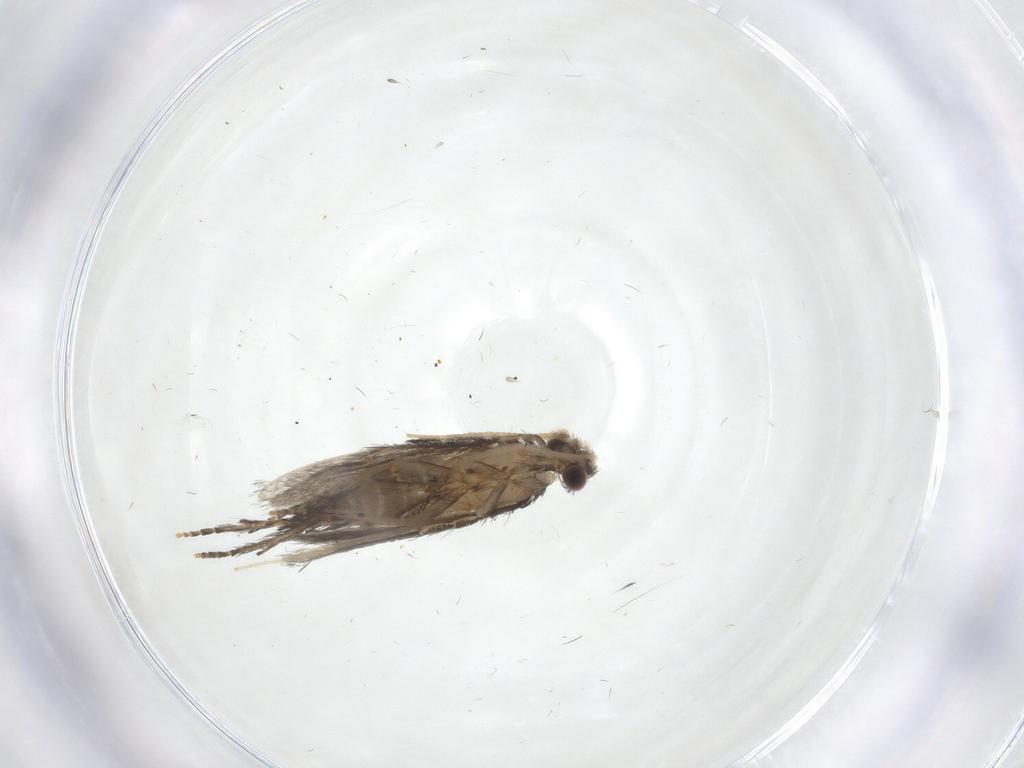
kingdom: Animalia
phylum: Arthropoda
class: Insecta
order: Trichoptera
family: Hydroptilidae
